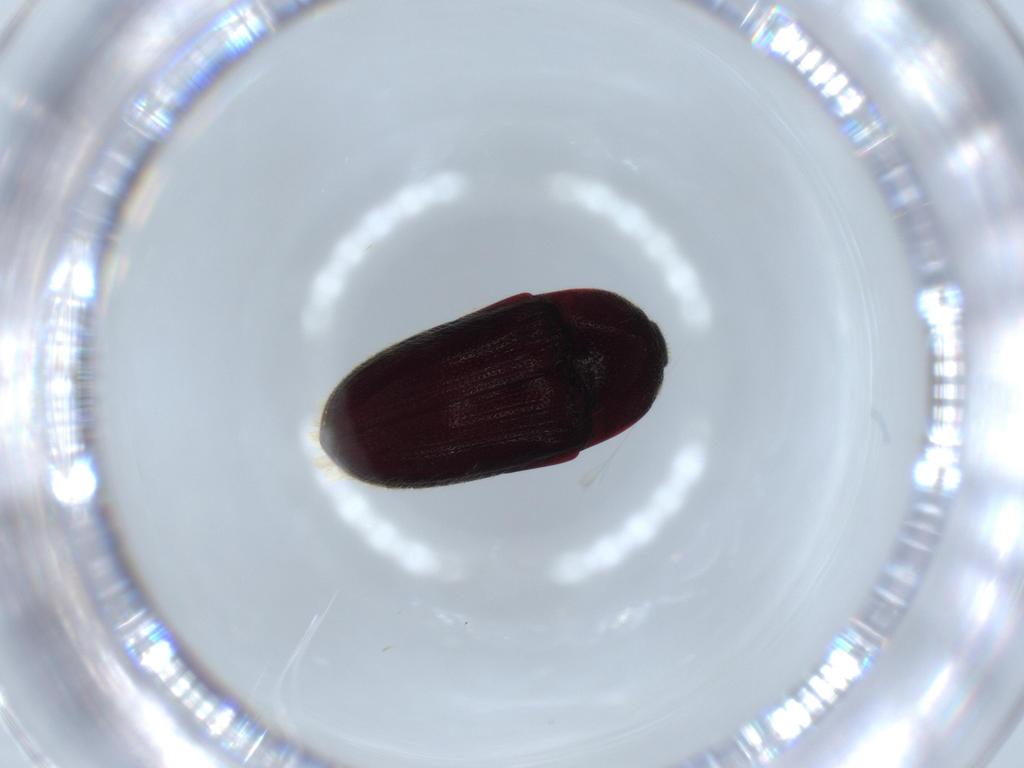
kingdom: Animalia
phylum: Arthropoda
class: Insecta
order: Coleoptera
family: Throscidae
